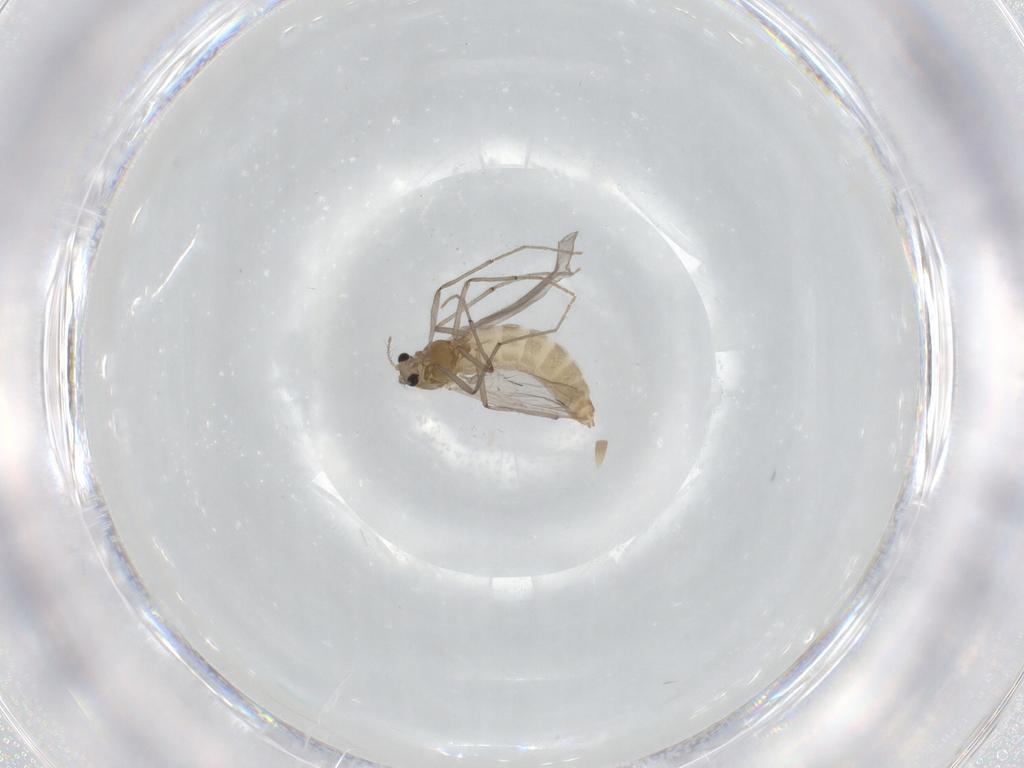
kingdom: Animalia
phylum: Arthropoda
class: Insecta
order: Diptera
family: Chironomidae
